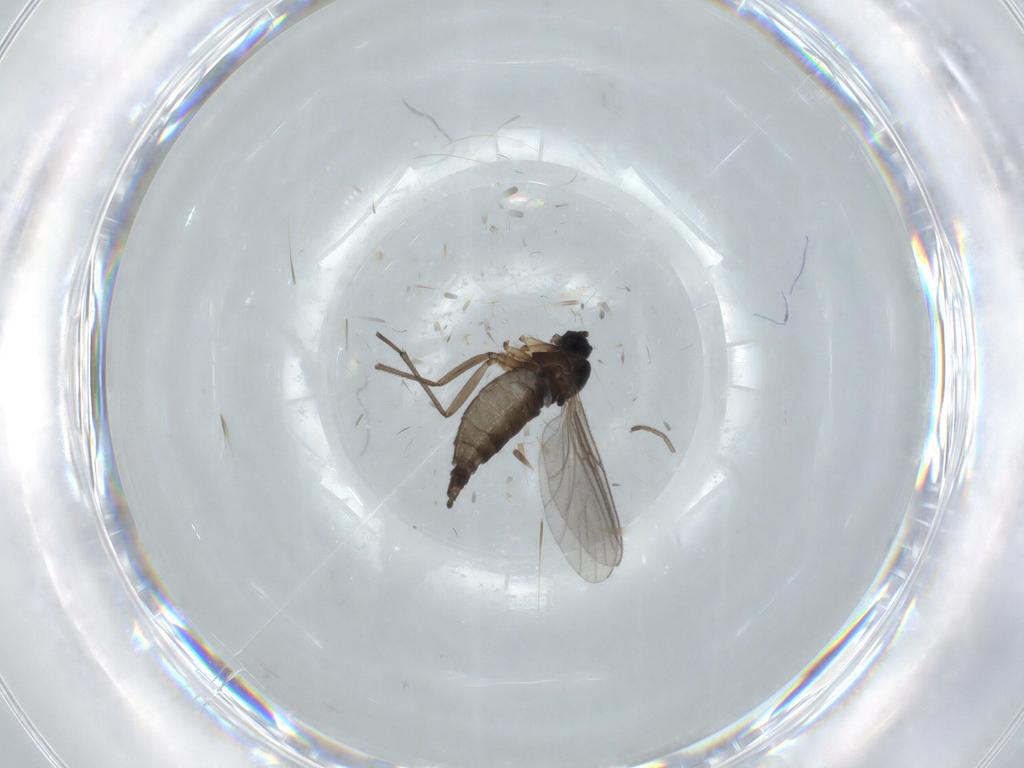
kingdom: Animalia
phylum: Arthropoda
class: Insecta
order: Diptera
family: Sciaridae
